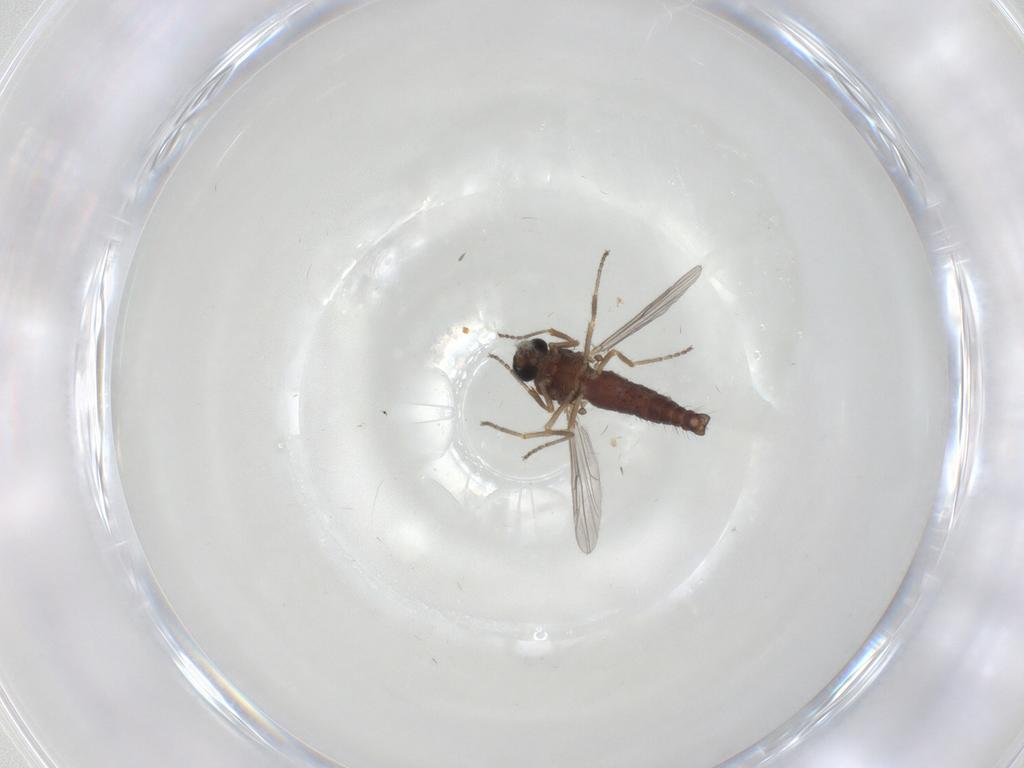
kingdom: Animalia
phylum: Arthropoda
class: Insecta
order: Diptera
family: Ceratopogonidae
